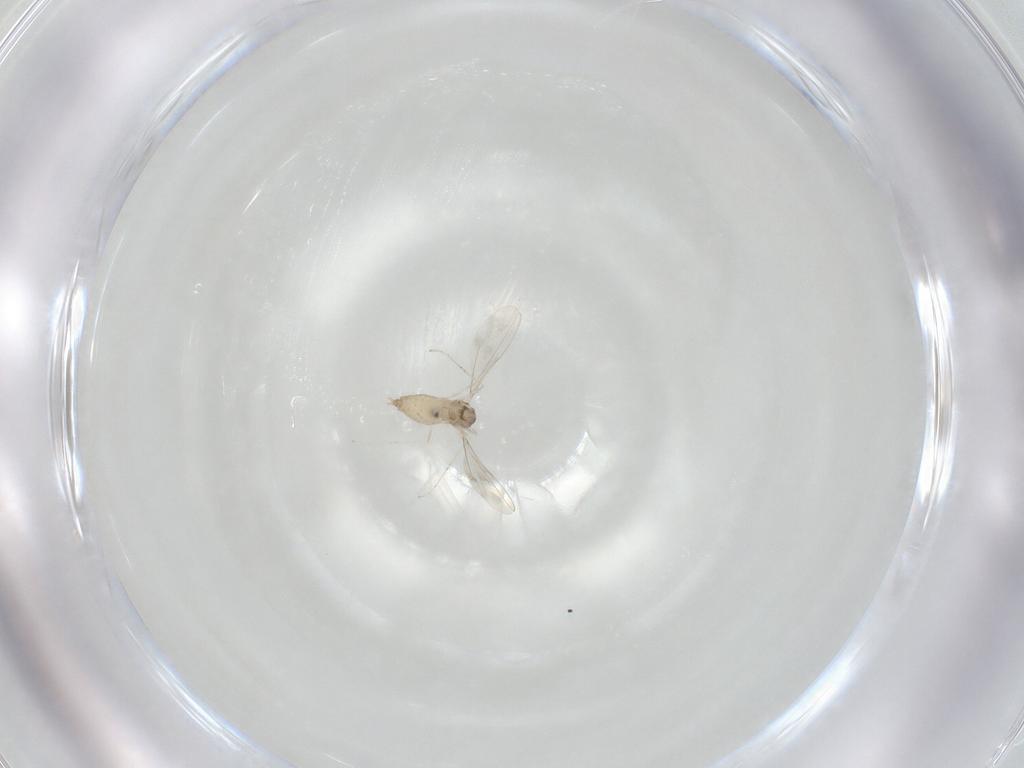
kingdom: Animalia
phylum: Arthropoda
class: Insecta
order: Diptera
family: Cecidomyiidae
